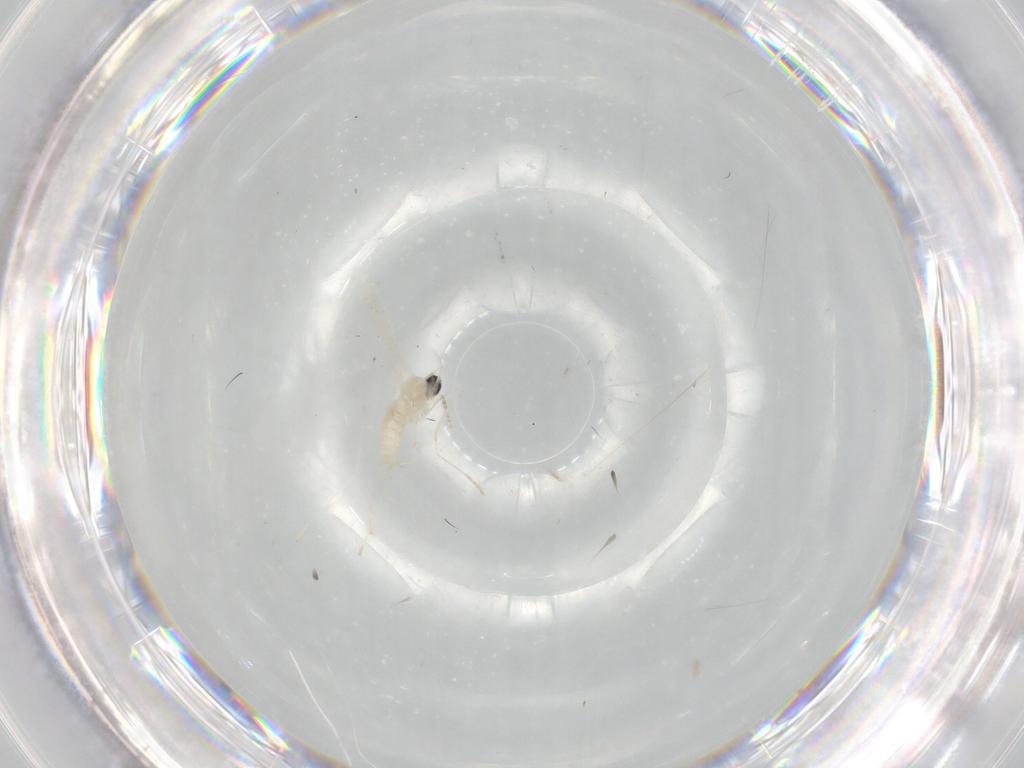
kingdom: Animalia
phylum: Arthropoda
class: Insecta
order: Diptera
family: Cecidomyiidae
